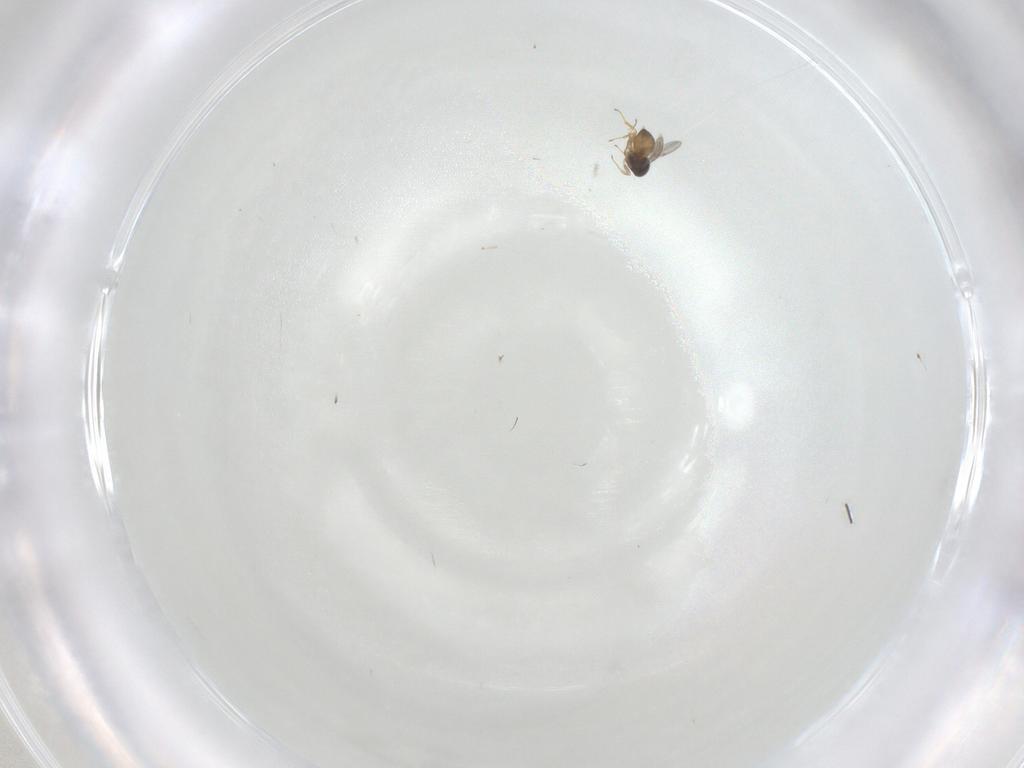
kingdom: Animalia
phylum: Arthropoda
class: Insecta
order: Hymenoptera
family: Scelionidae
